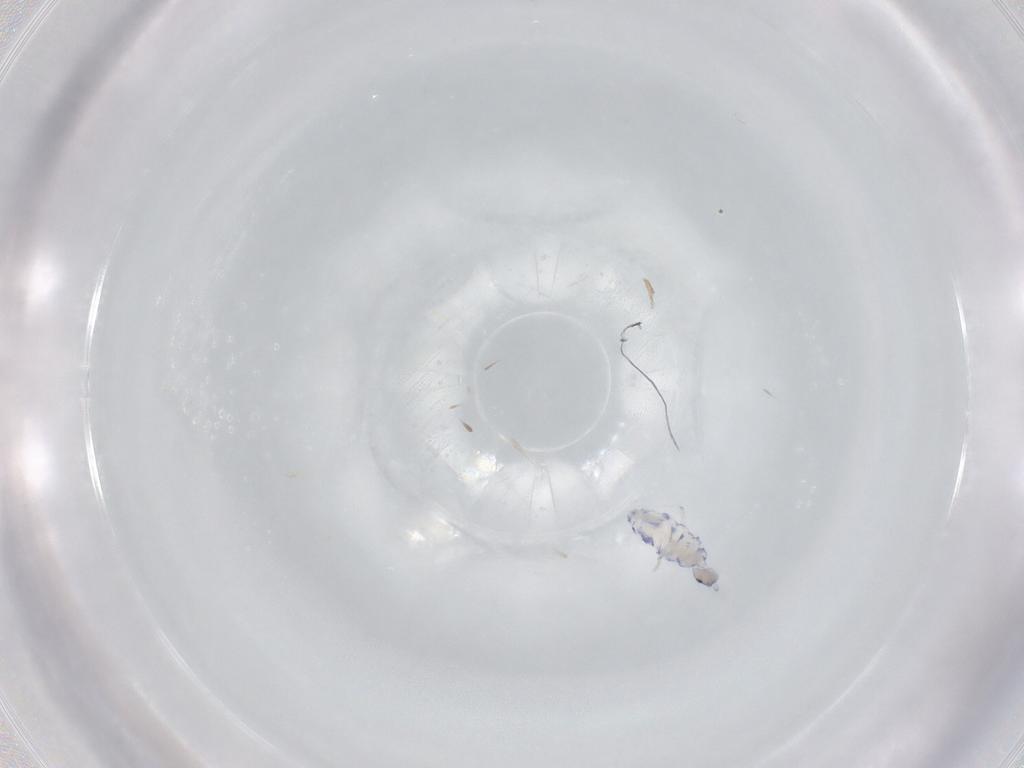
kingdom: Animalia
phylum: Arthropoda
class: Collembola
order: Entomobryomorpha
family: Entomobryidae
